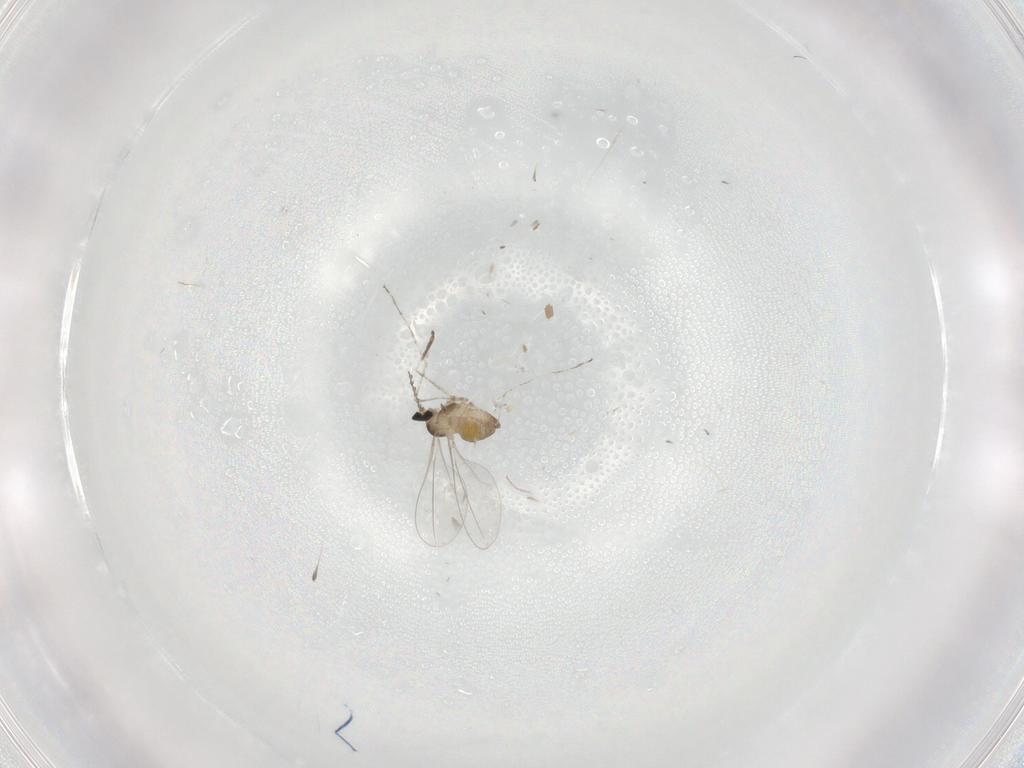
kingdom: Animalia
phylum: Arthropoda
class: Insecta
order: Diptera
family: Cecidomyiidae
